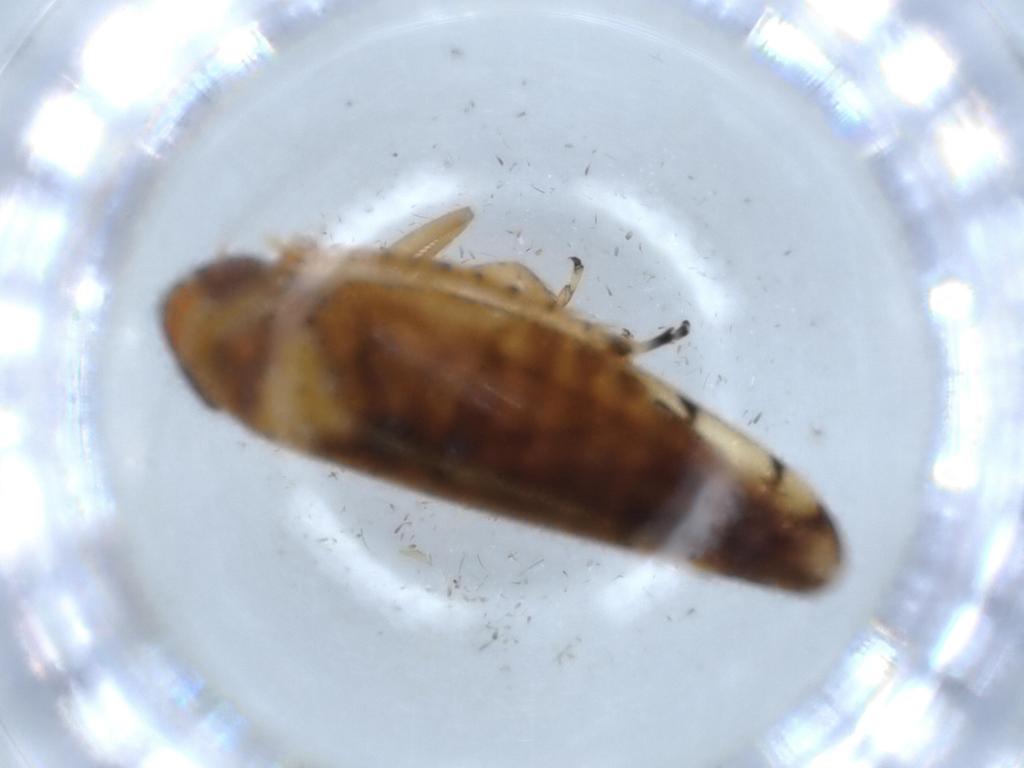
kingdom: Animalia
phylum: Arthropoda
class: Insecta
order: Hemiptera
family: Cicadellidae
